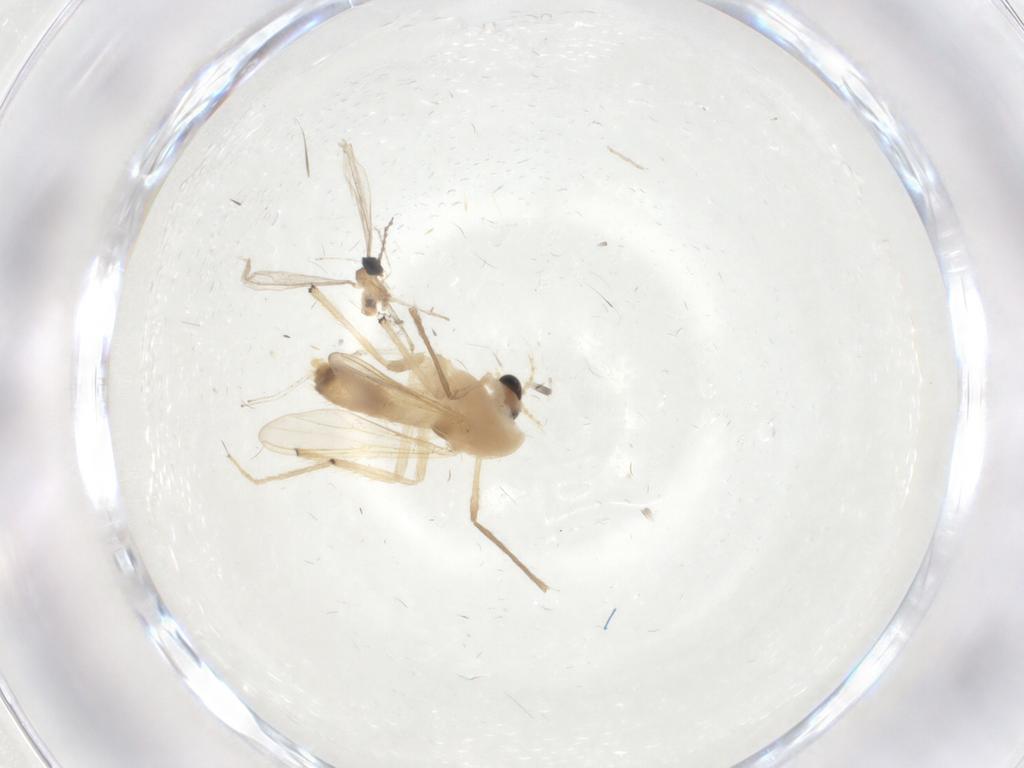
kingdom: Animalia
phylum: Arthropoda
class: Insecta
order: Diptera
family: Chironomidae
